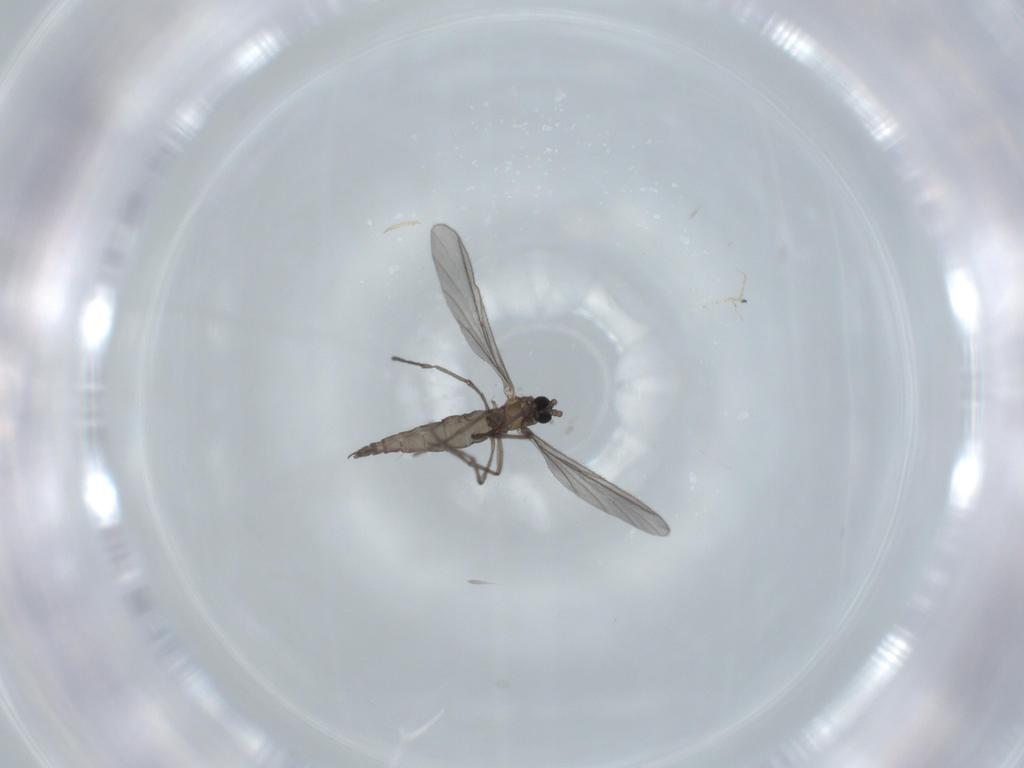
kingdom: Animalia
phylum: Arthropoda
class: Insecta
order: Diptera
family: Sciaridae
